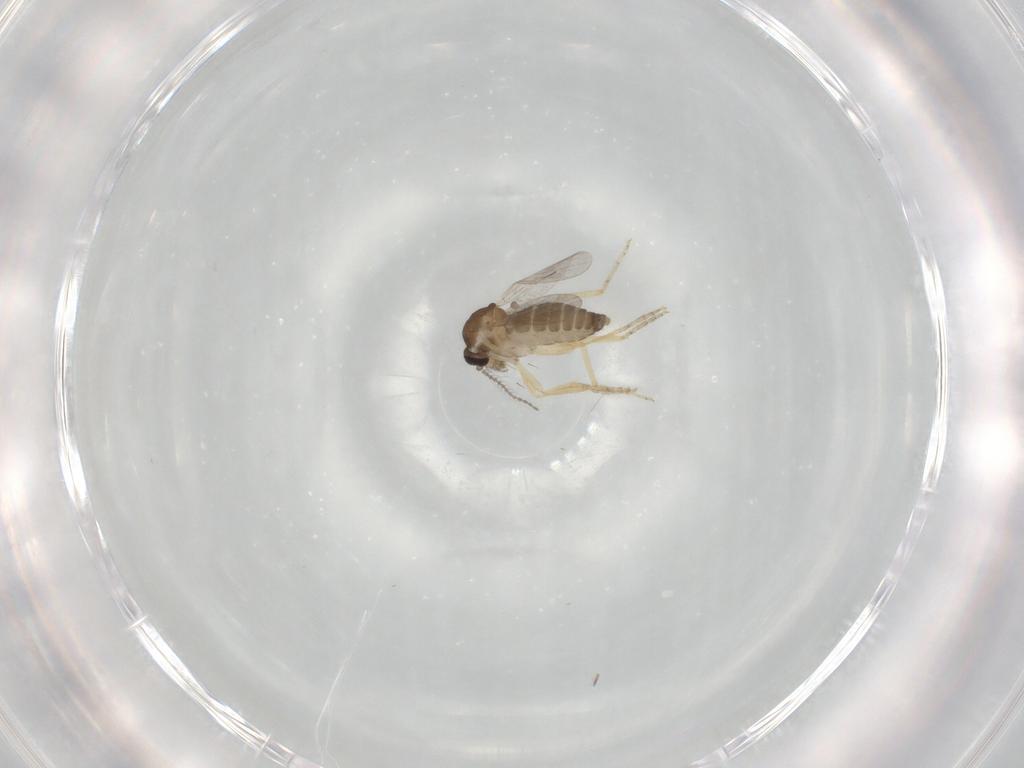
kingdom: Animalia
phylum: Arthropoda
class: Insecta
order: Diptera
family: Ceratopogonidae
